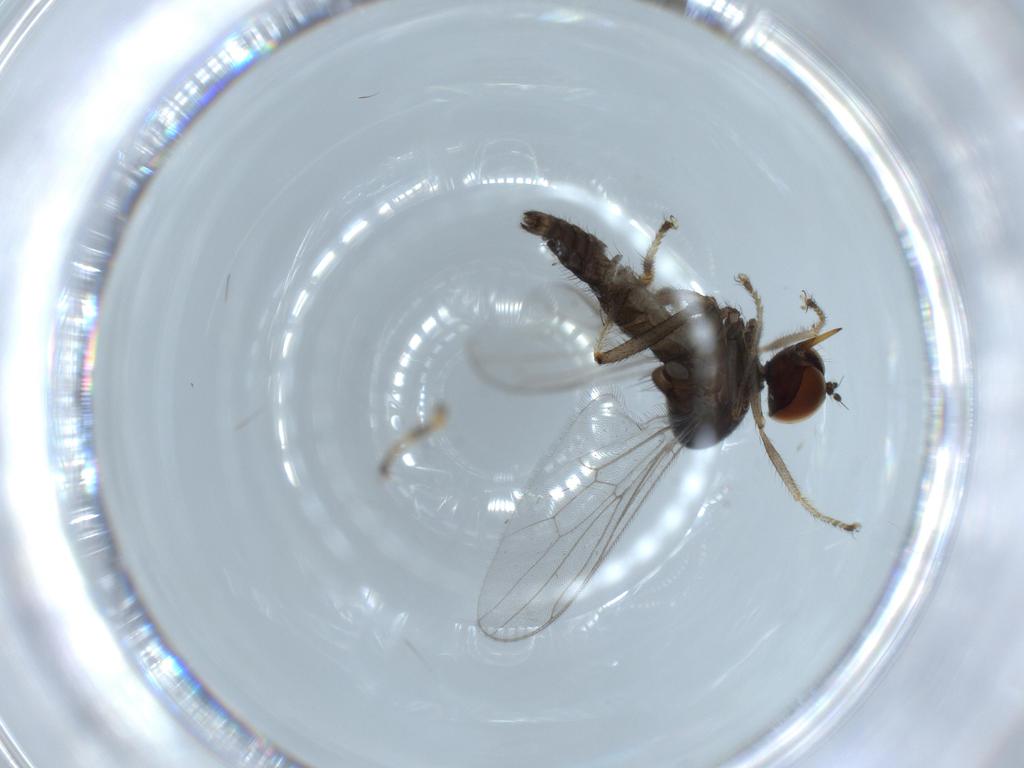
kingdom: Animalia
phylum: Arthropoda
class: Insecta
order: Diptera
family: Hybotidae
